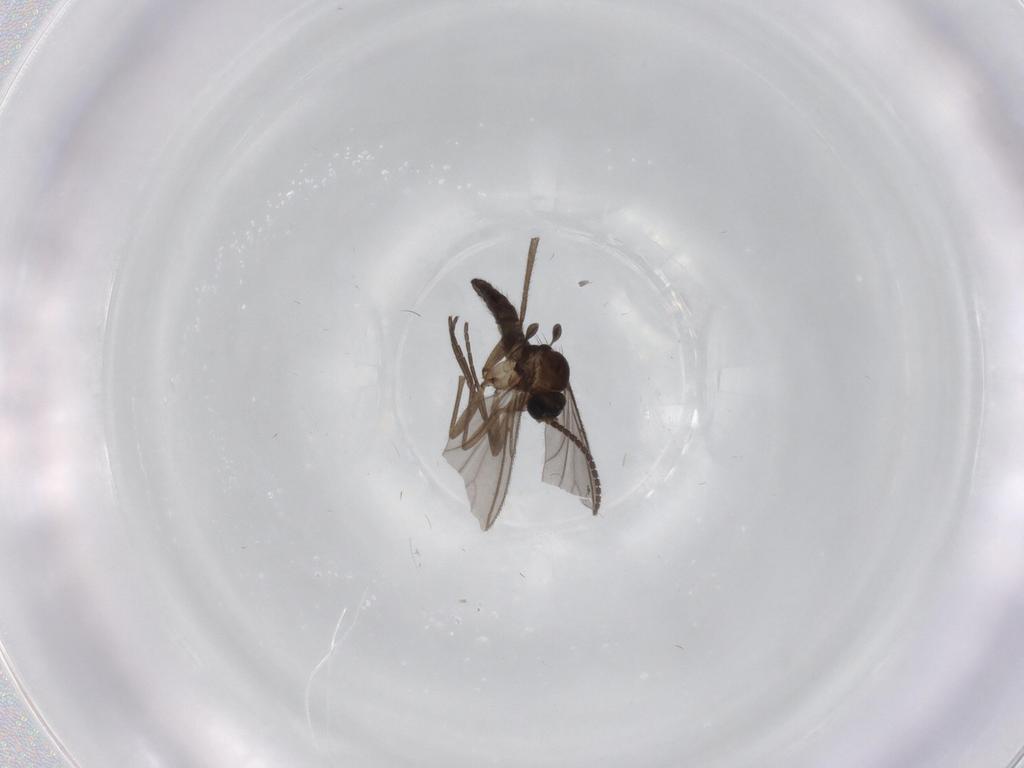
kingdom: Animalia
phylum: Arthropoda
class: Insecta
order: Diptera
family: Sciaridae
